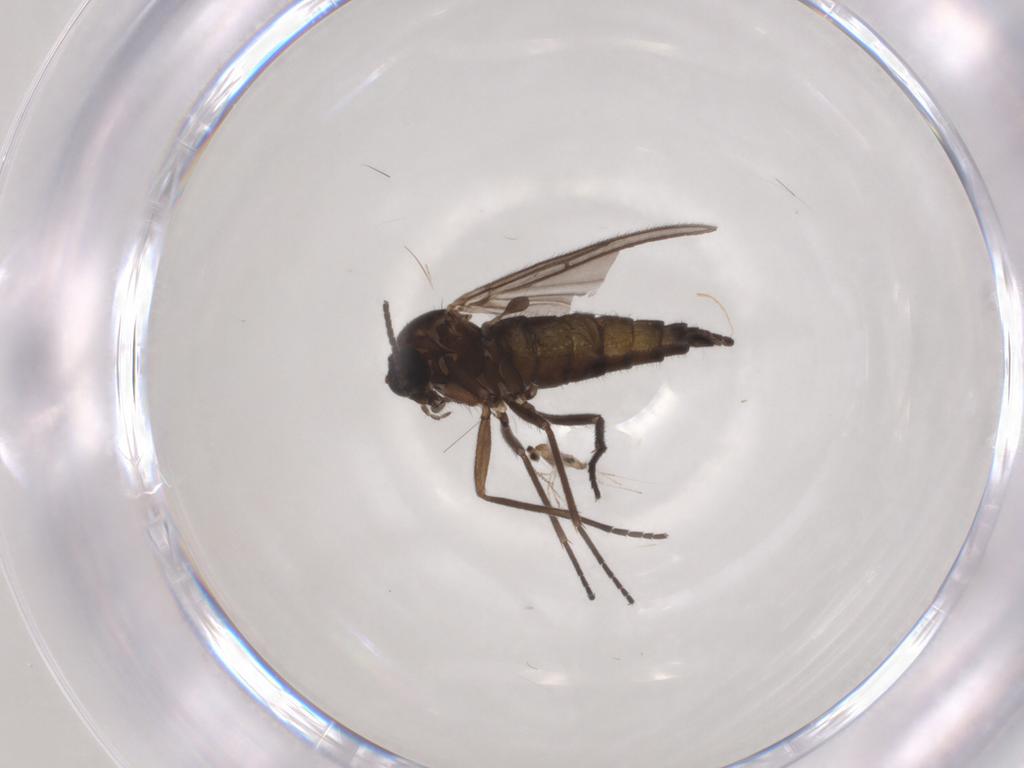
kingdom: Animalia
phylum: Arthropoda
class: Insecta
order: Diptera
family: Sciaridae
